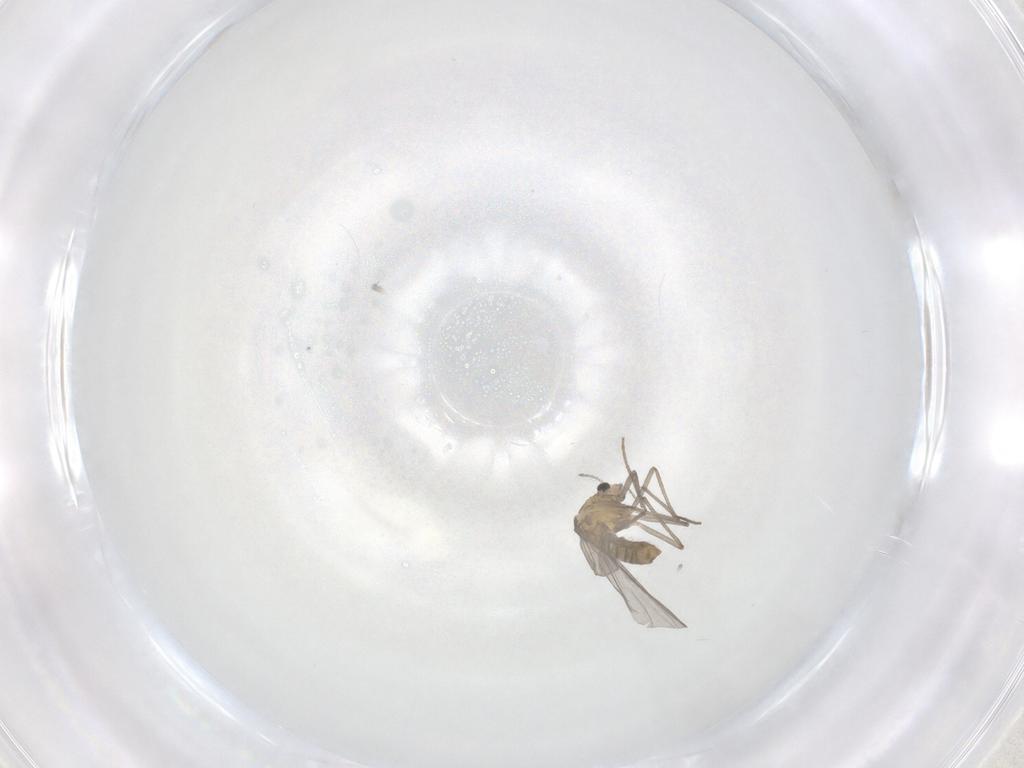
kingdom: Animalia
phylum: Arthropoda
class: Insecta
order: Diptera
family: Chironomidae
